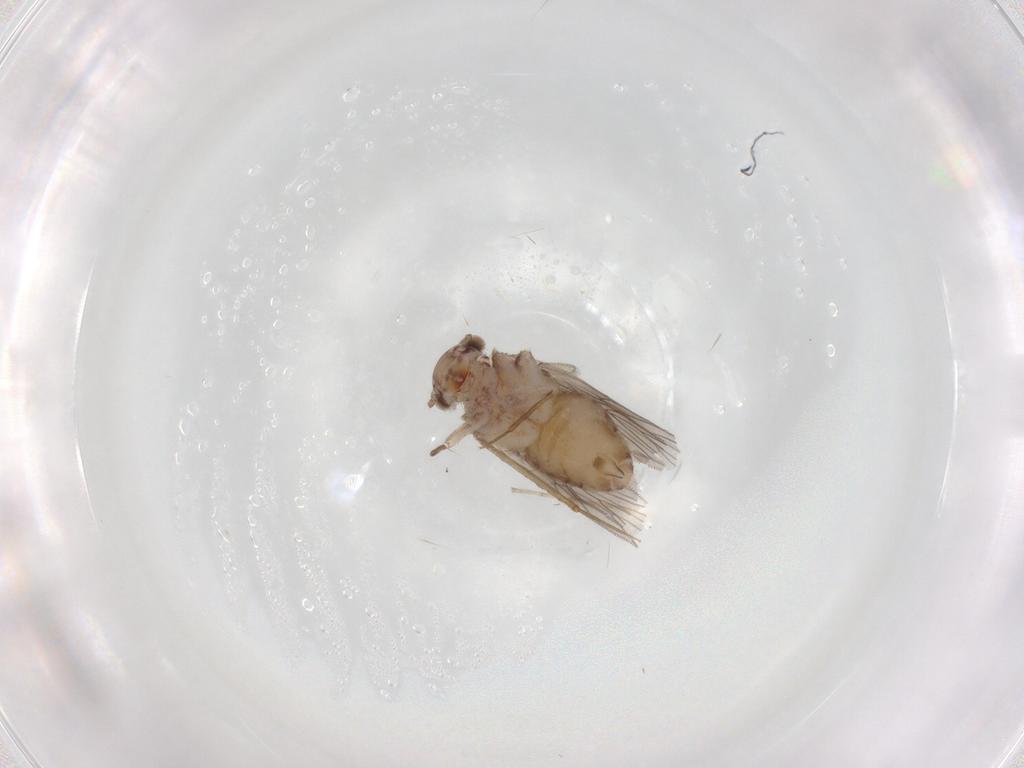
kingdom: Animalia
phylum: Arthropoda
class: Insecta
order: Psocodea
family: Lepidopsocidae
